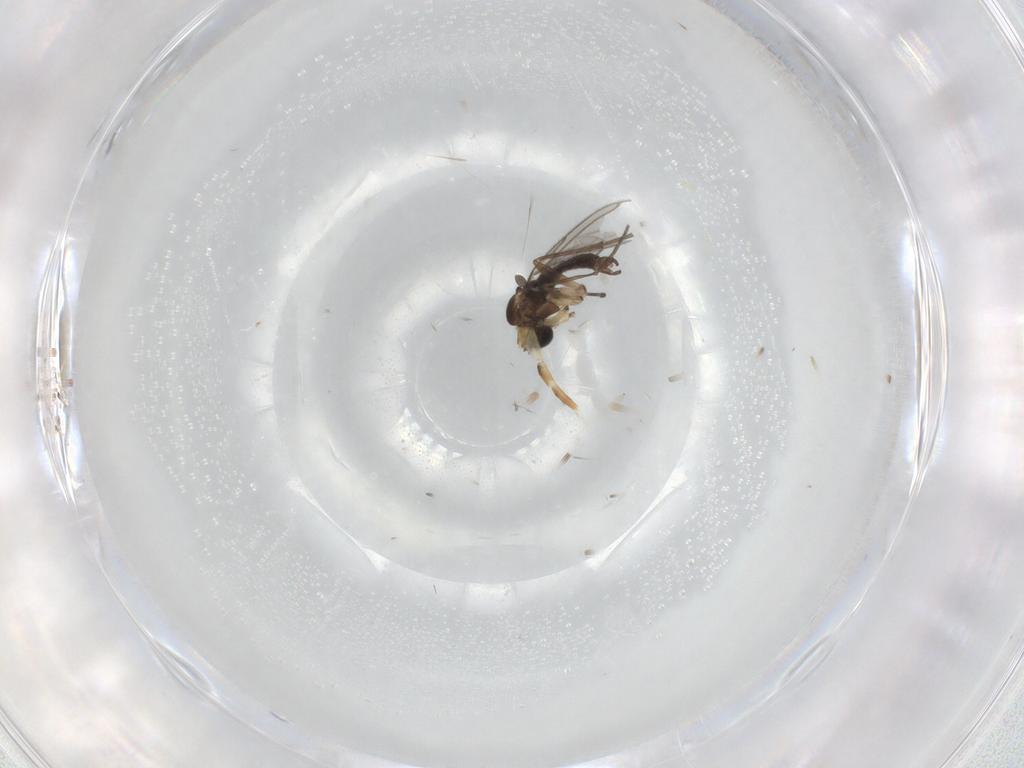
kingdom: Animalia
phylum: Arthropoda
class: Insecta
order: Diptera
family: Sciaridae
